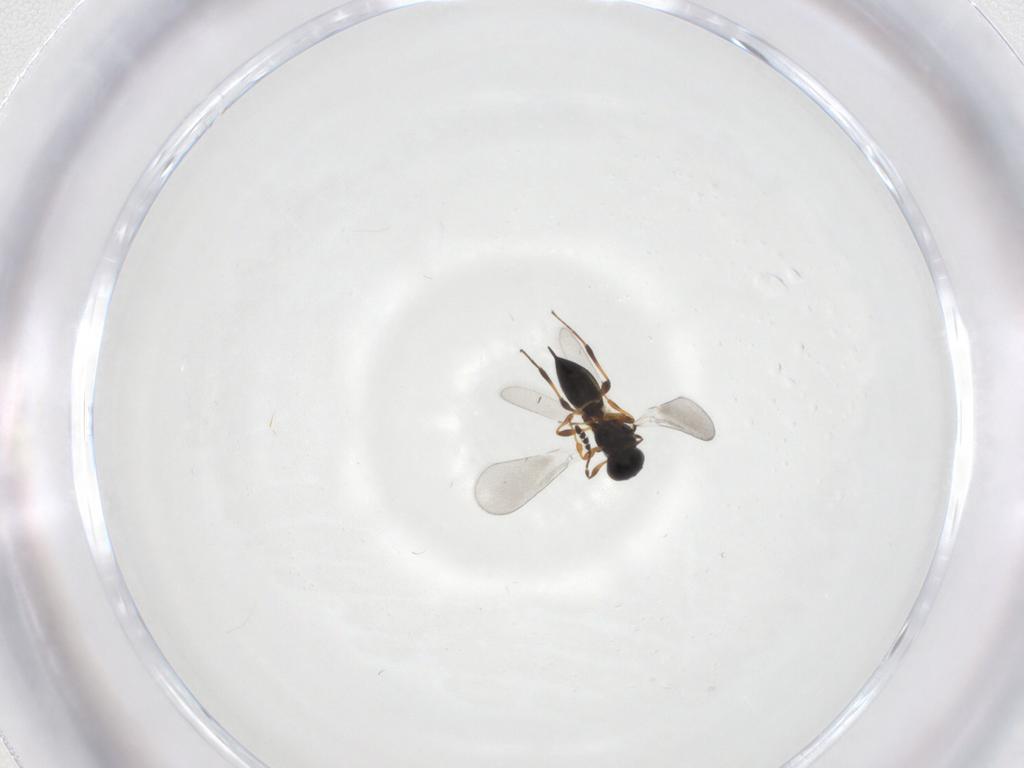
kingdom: Animalia
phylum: Arthropoda
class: Insecta
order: Hymenoptera
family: Platygastridae
